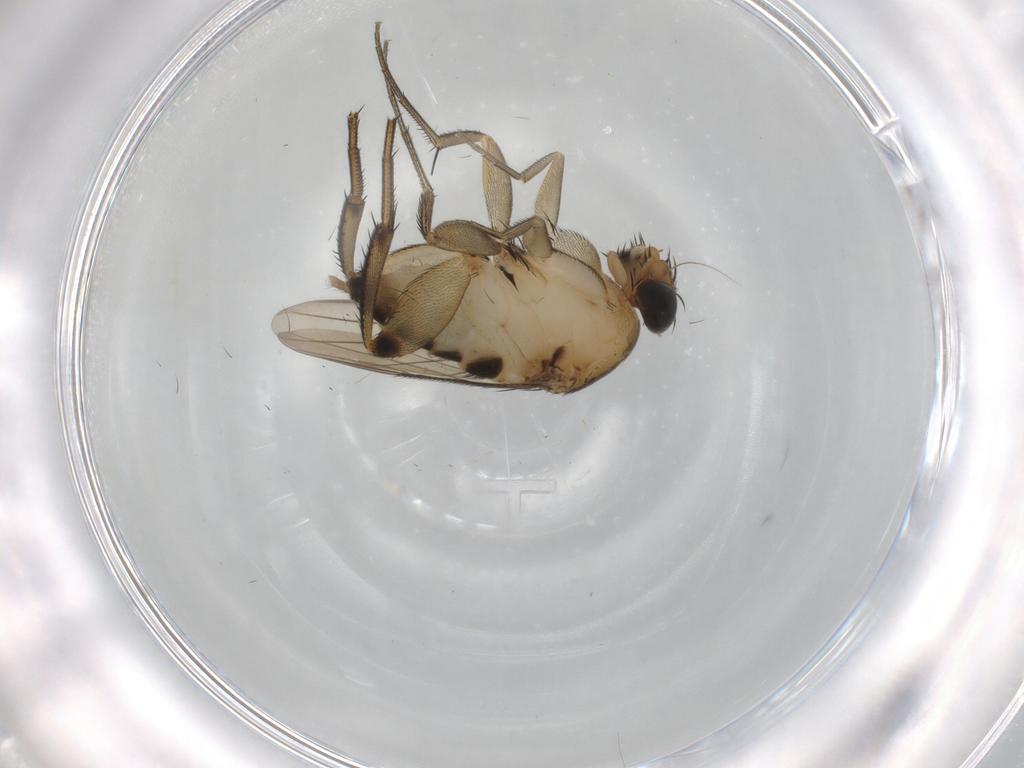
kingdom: Animalia
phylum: Arthropoda
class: Insecta
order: Diptera
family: Phoridae
